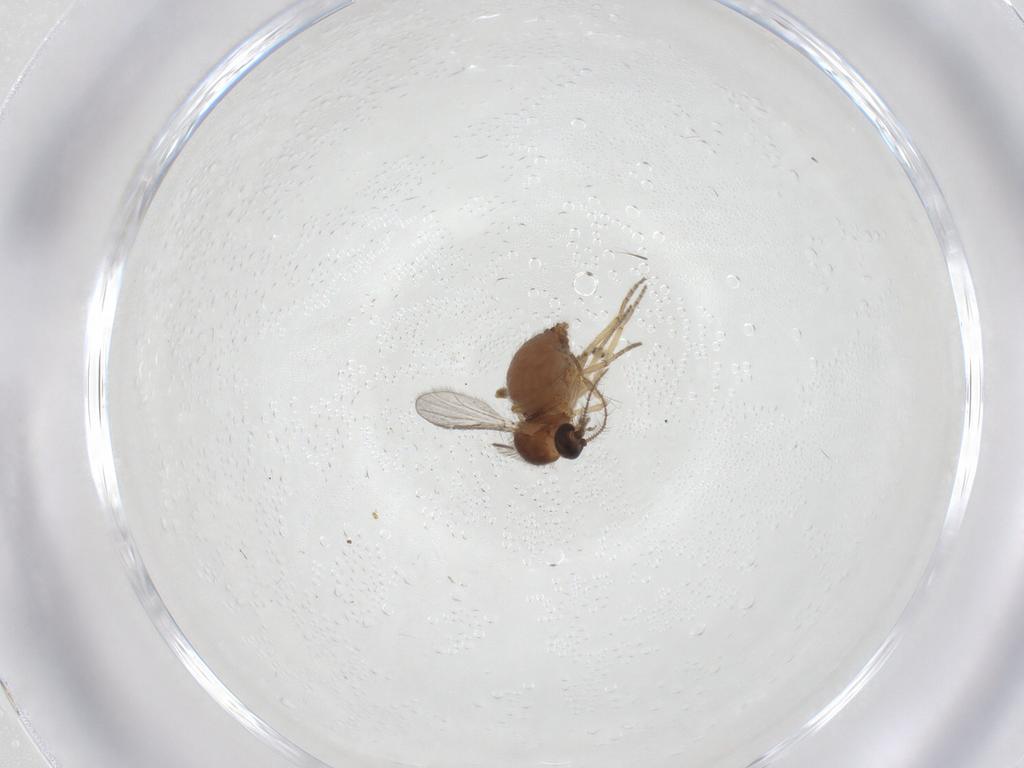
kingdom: Animalia
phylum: Arthropoda
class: Insecta
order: Diptera
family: Ceratopogonidae
